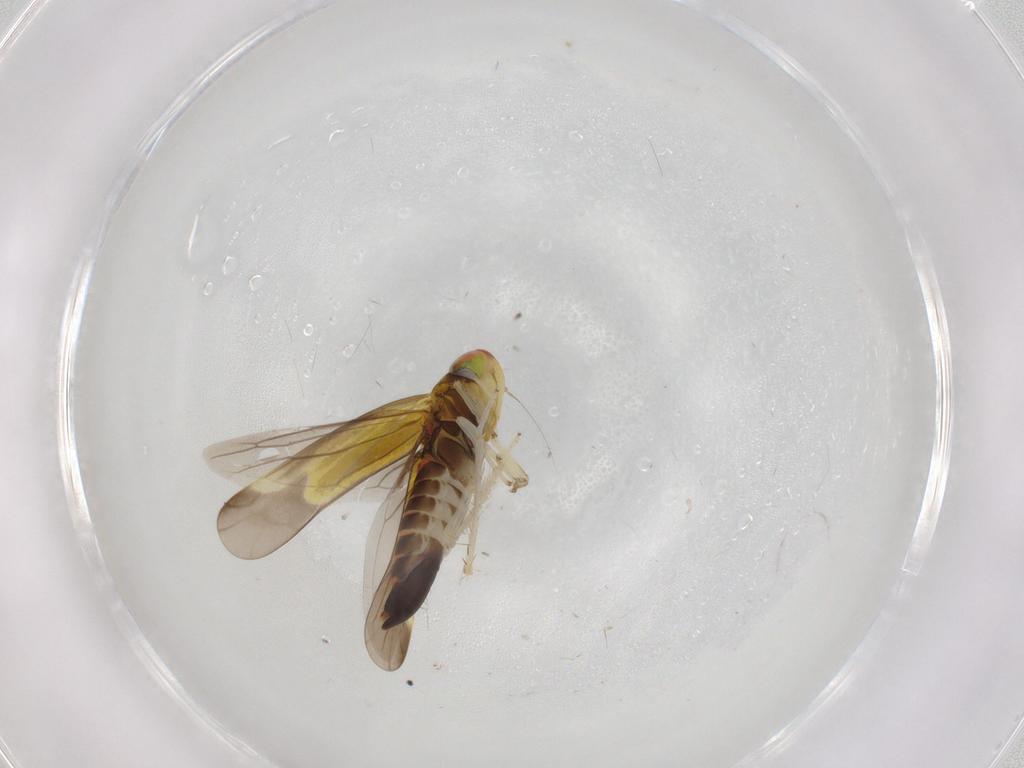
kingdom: Animalia
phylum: Arthropoda
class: Insecta
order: Hemiptera
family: Cicadellidae
